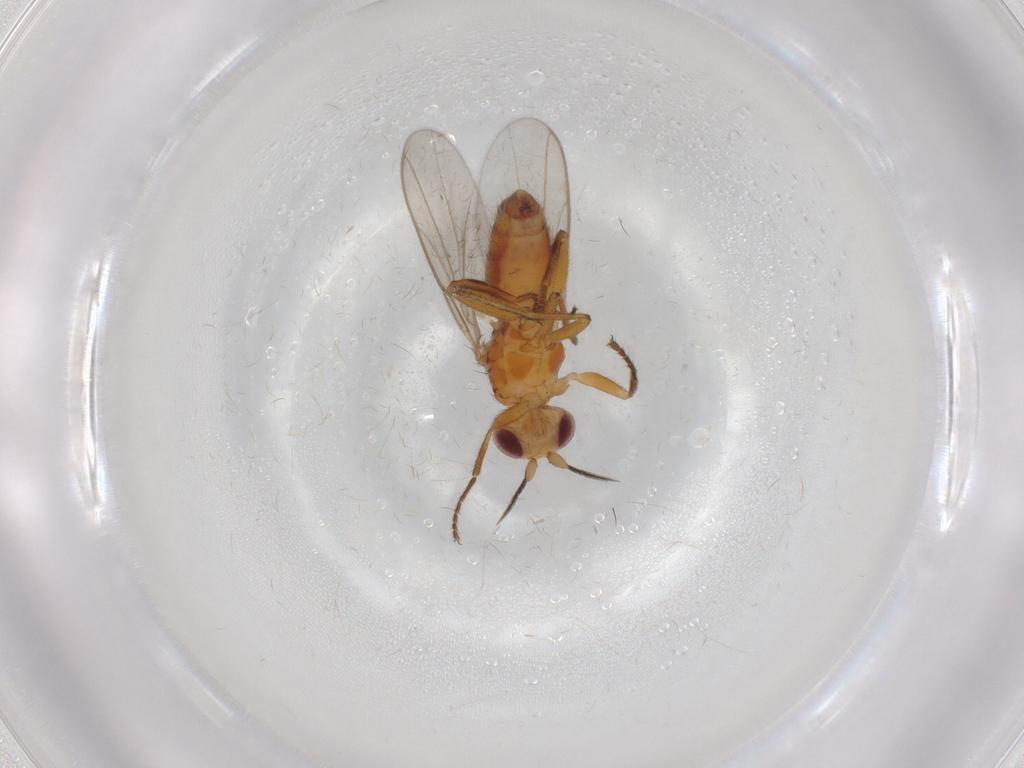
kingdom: Animalia
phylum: Arthropoda
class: Insecta
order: Diptera
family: Chloropidae
